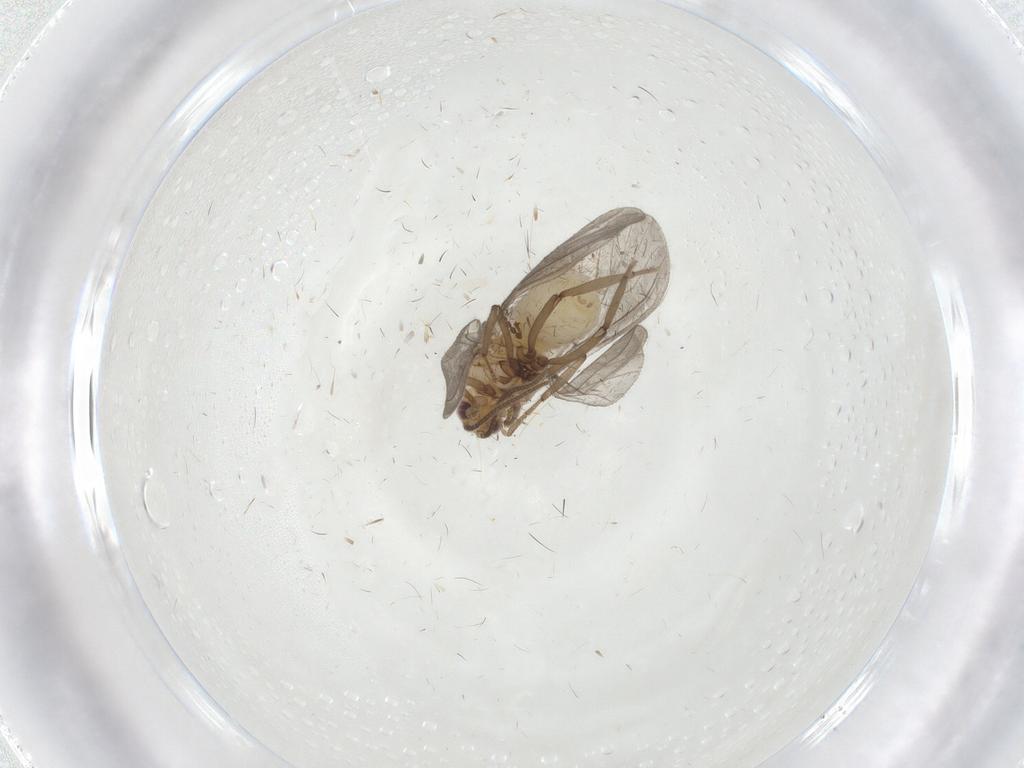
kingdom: Animalia
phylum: Arthropoda
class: Insecta
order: Neuroptera
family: Coniopterygidae
